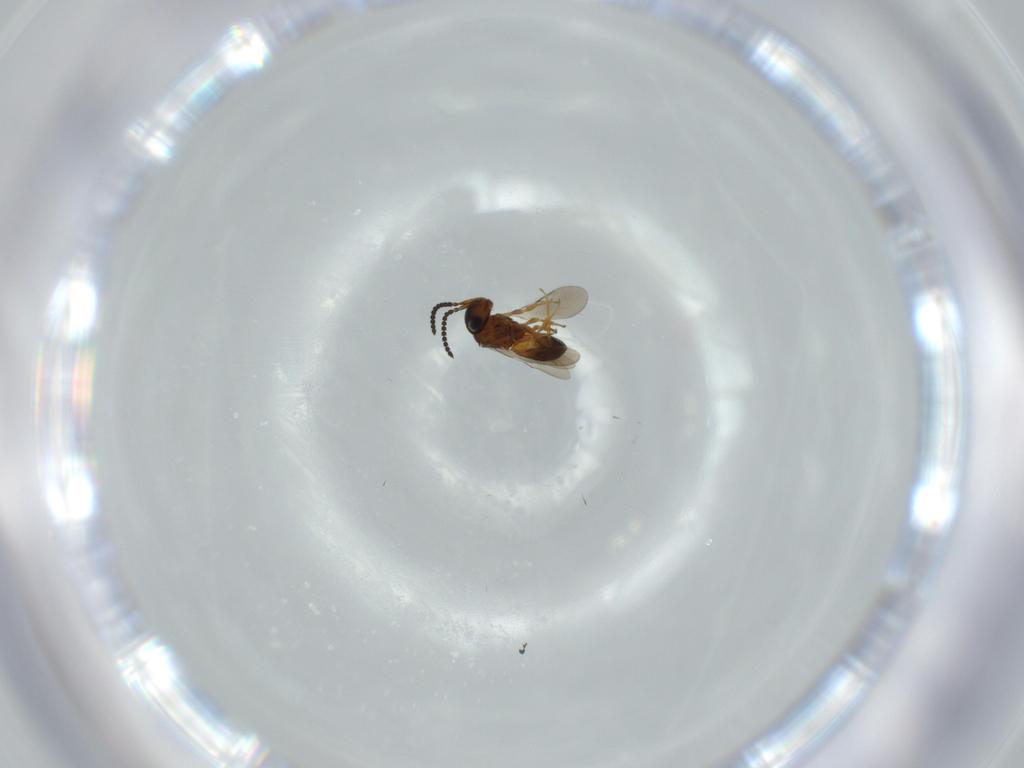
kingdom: Animalia
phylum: Arthropoda
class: Insecta
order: Hymenoptera
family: Scelionidae
